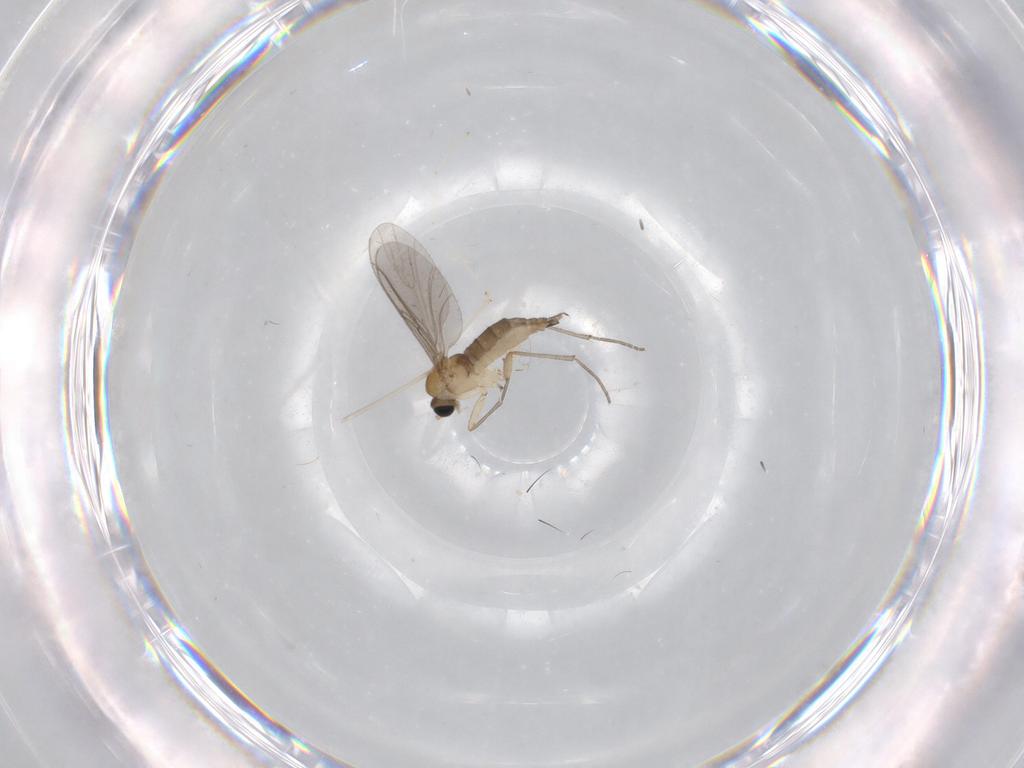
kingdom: Animalia
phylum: Arthropoda
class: Insecta
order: Diptera
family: Sciaridae
